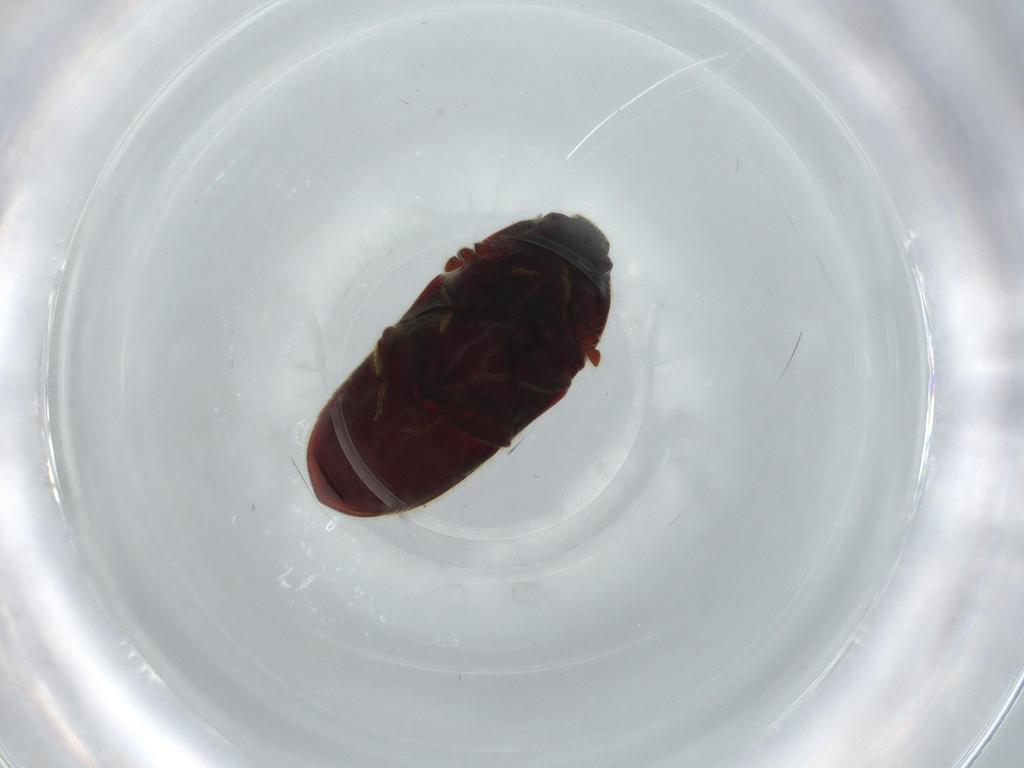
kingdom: Animalia
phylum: Arthropoda
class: Insecta
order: Coleoptera
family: Throscidae
